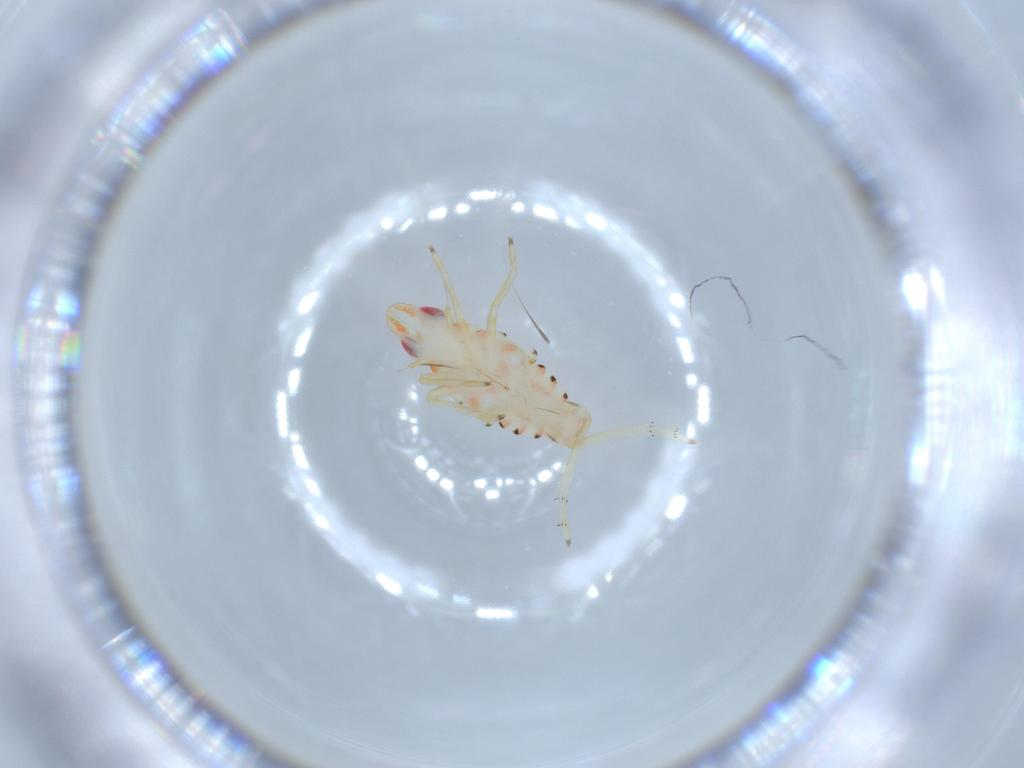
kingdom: Animalia
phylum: Arthropoda
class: Insecta
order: Hemiptera
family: Tropiduchidae
